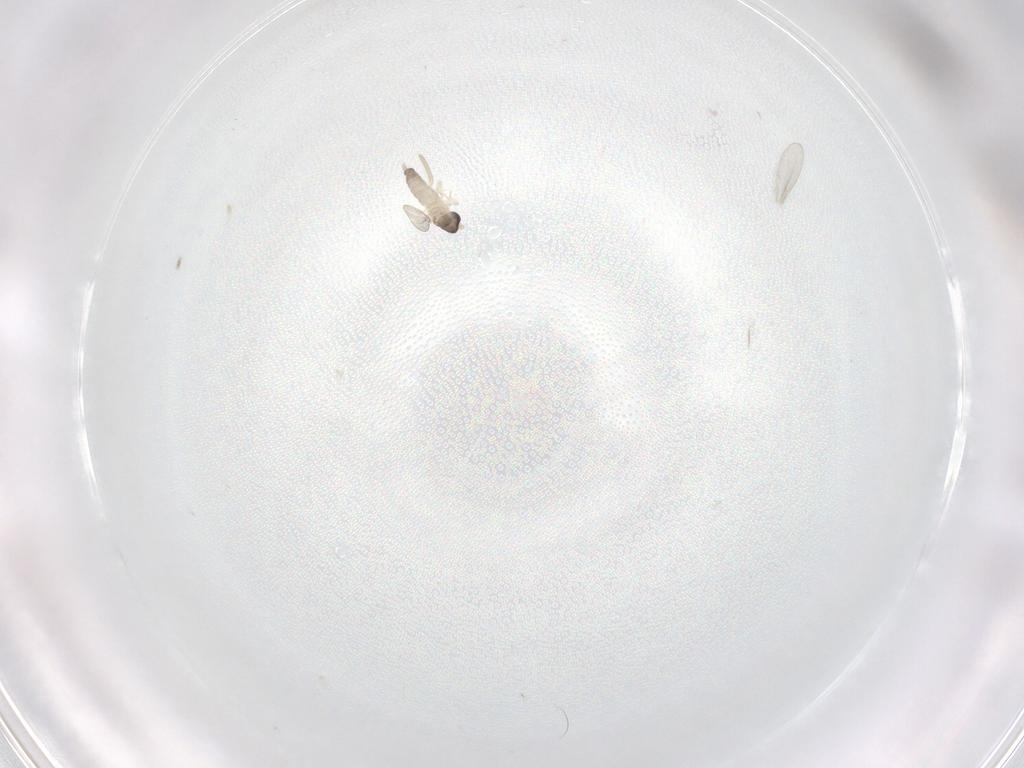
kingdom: Animalia
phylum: Arthropoda
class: Insecta
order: Diptera
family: Cecidomyiidae
